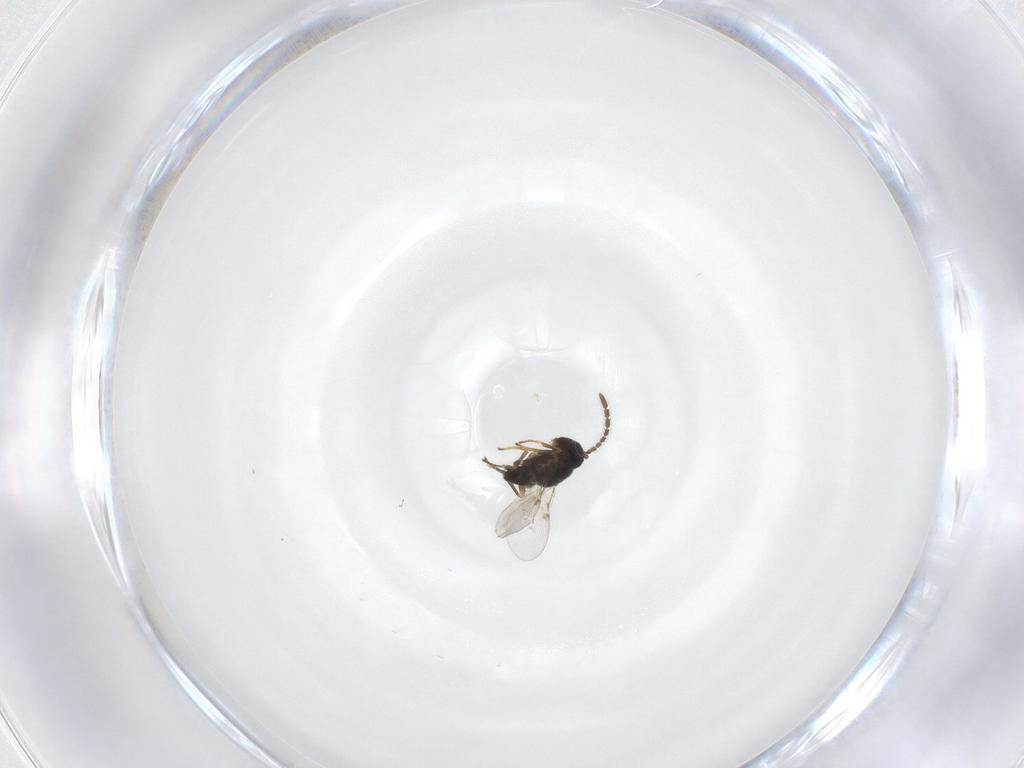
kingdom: Animalia
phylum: Arthropoda
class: Insecta
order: Hymenoptera
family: Encyrtidae
